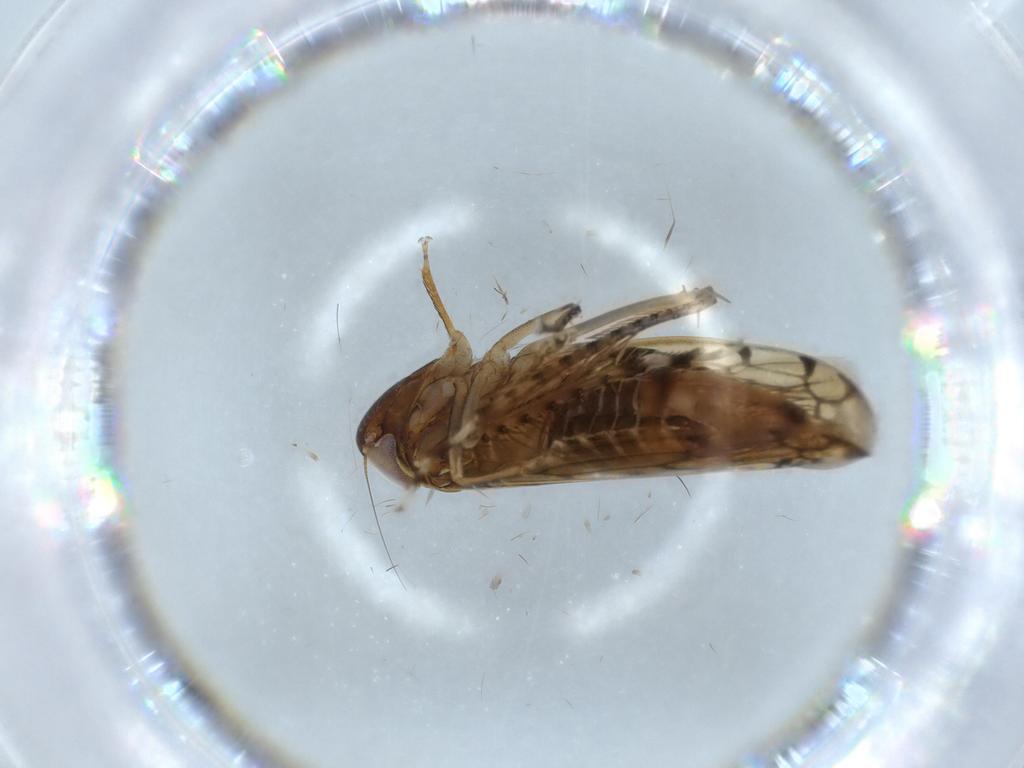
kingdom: Animalia
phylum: Arthropoda
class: Insecta
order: Hemiptera
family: Cicadellidae
